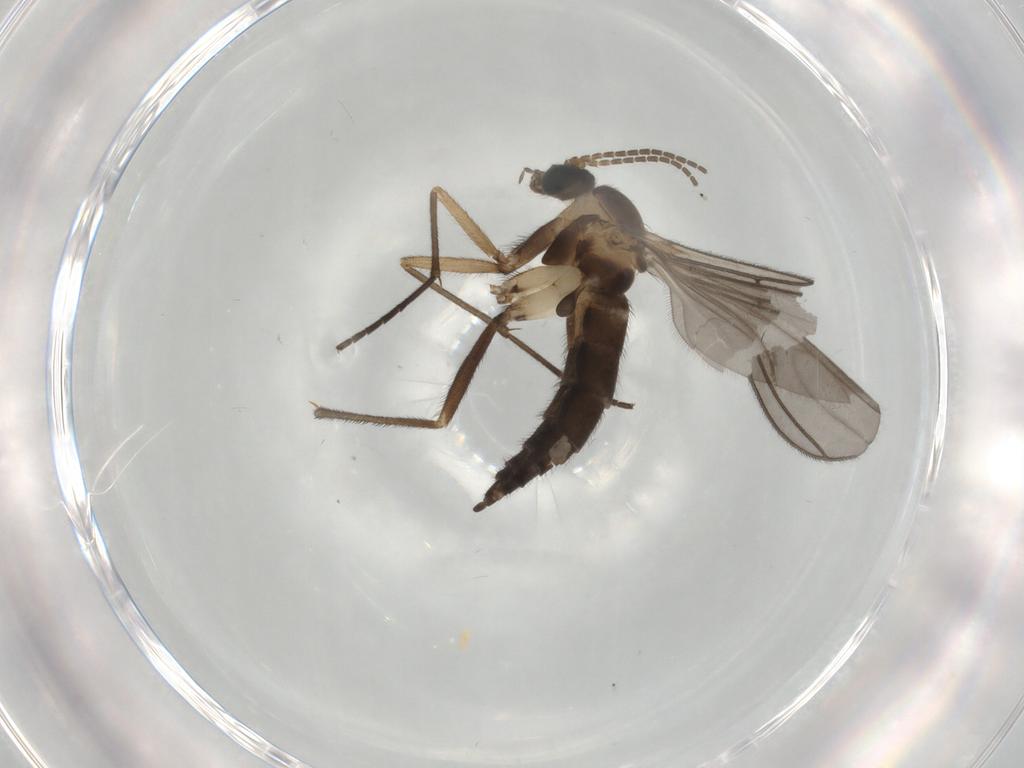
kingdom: Animalia
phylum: Arthropoda
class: Insecta
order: Diptera
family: Sciaridae
